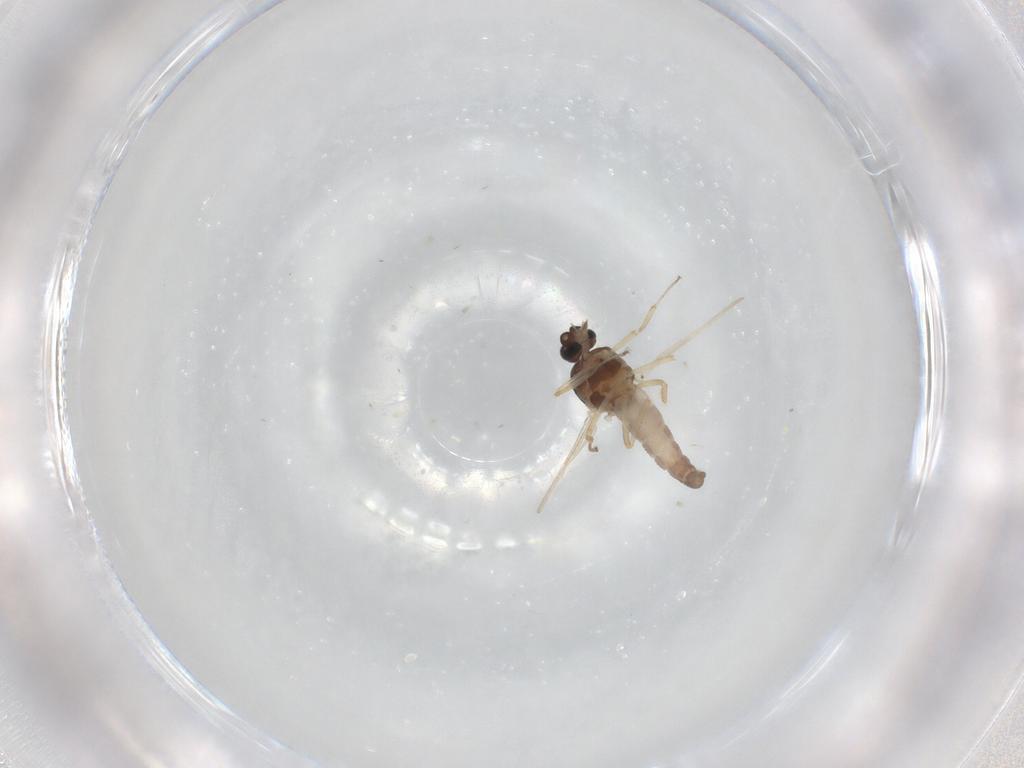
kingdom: Animalia
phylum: Arthropoda
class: Insecta
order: Diptera
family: Ceratopogonidae
